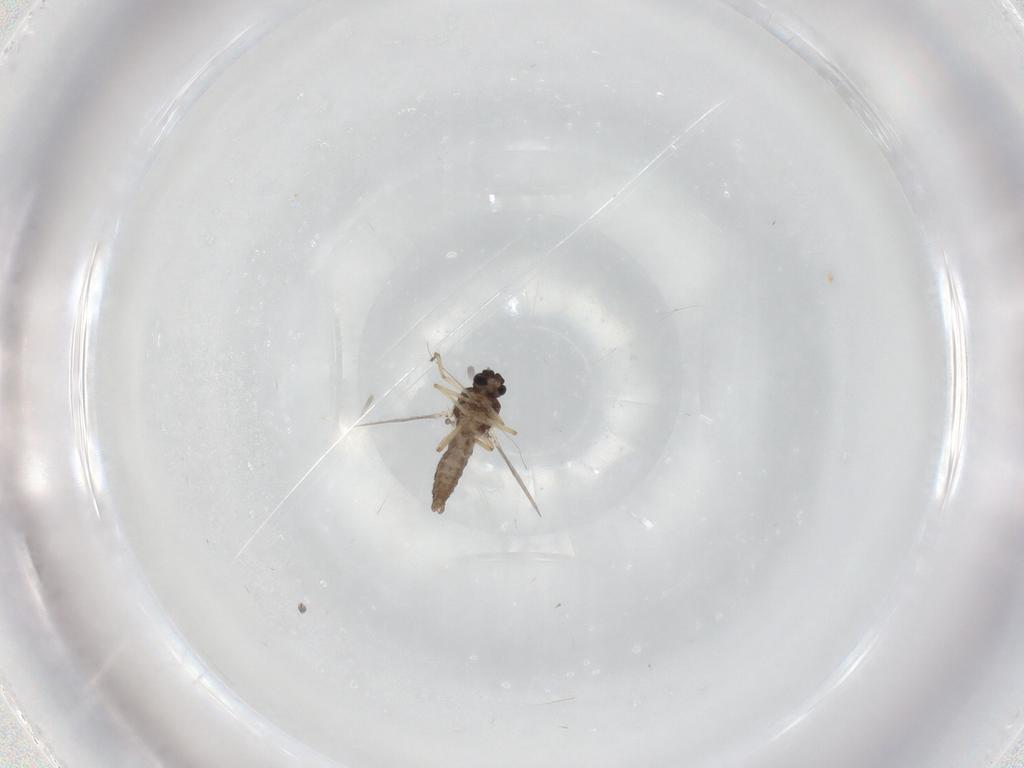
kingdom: Animalia
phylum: Arthropoda
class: Insecta
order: Diptera
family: Ceratopogonidae
